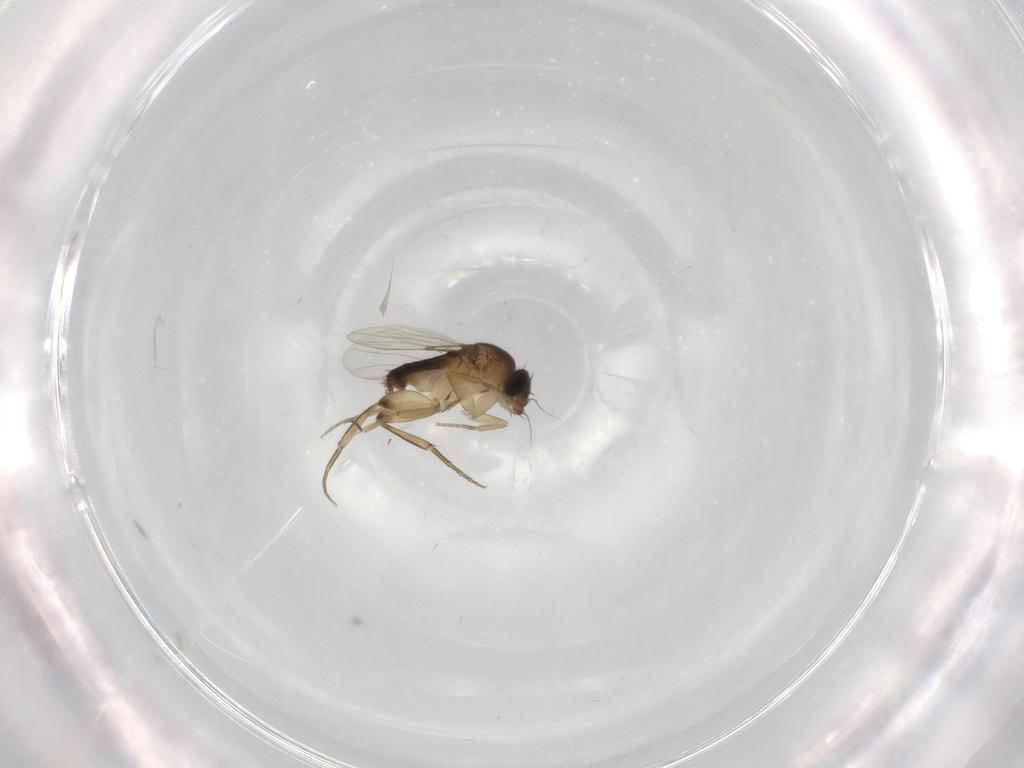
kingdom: Animalia
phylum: Arthropoda
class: Insecta
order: Diptera
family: Phoridae
